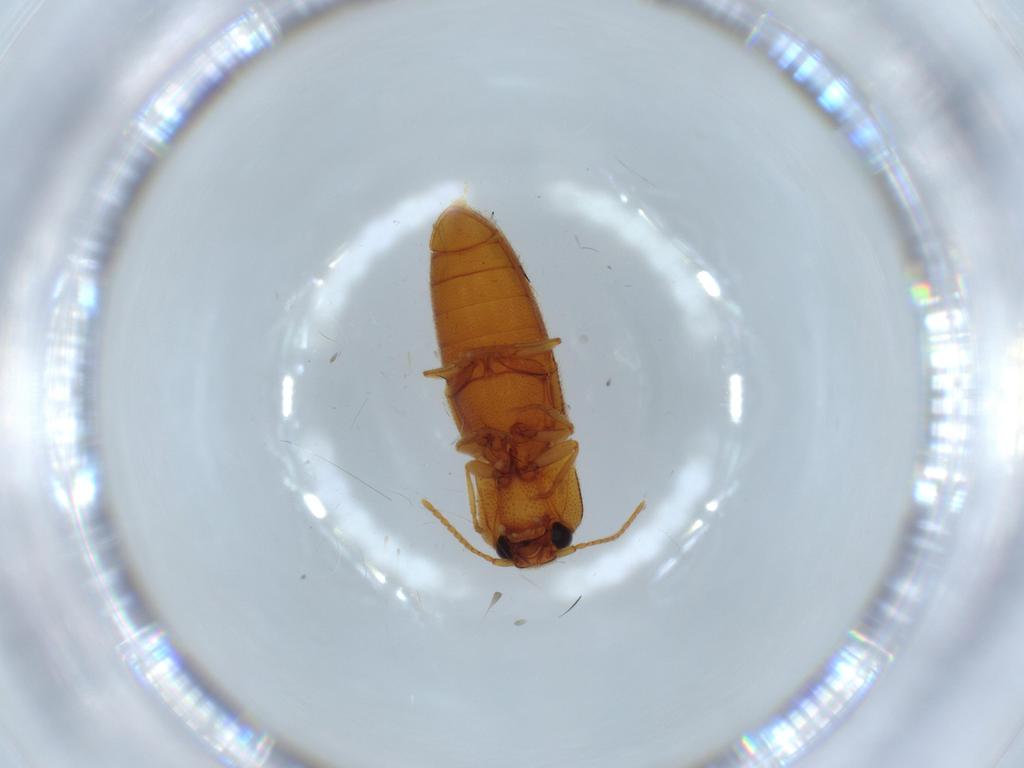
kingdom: Animalia
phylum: Arthropoda
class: Insecta
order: Coleoptera
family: Elateridae
